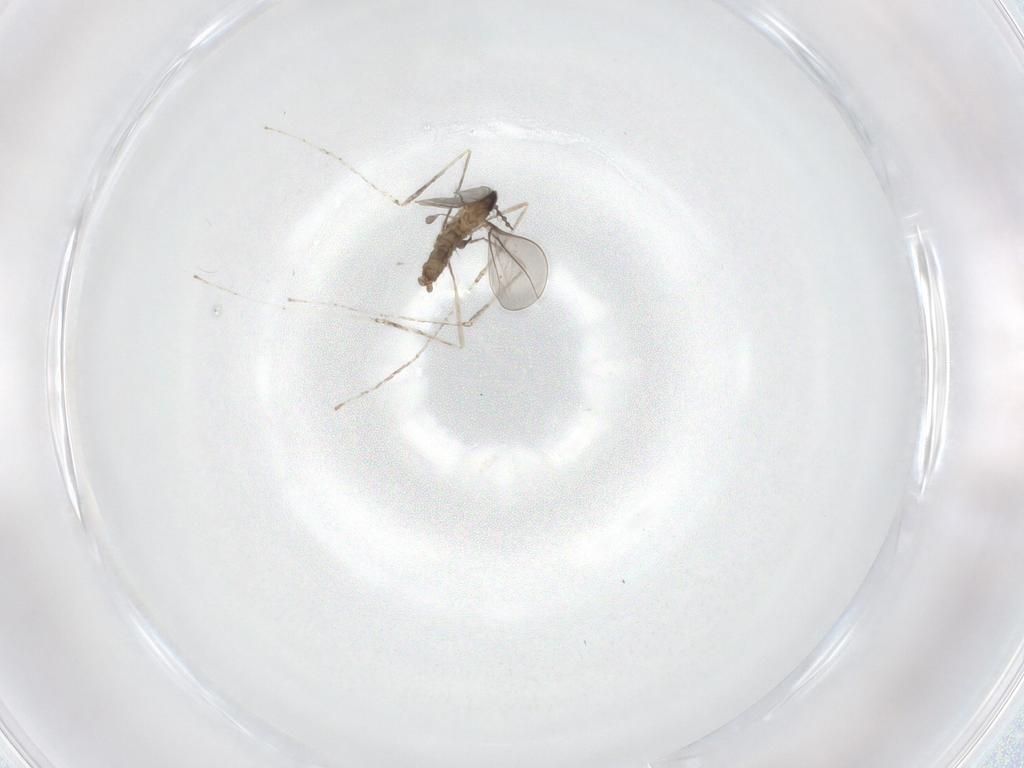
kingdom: Animalia
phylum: Arthropoda
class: Insecta
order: Diptera
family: Cecidomyiidae
